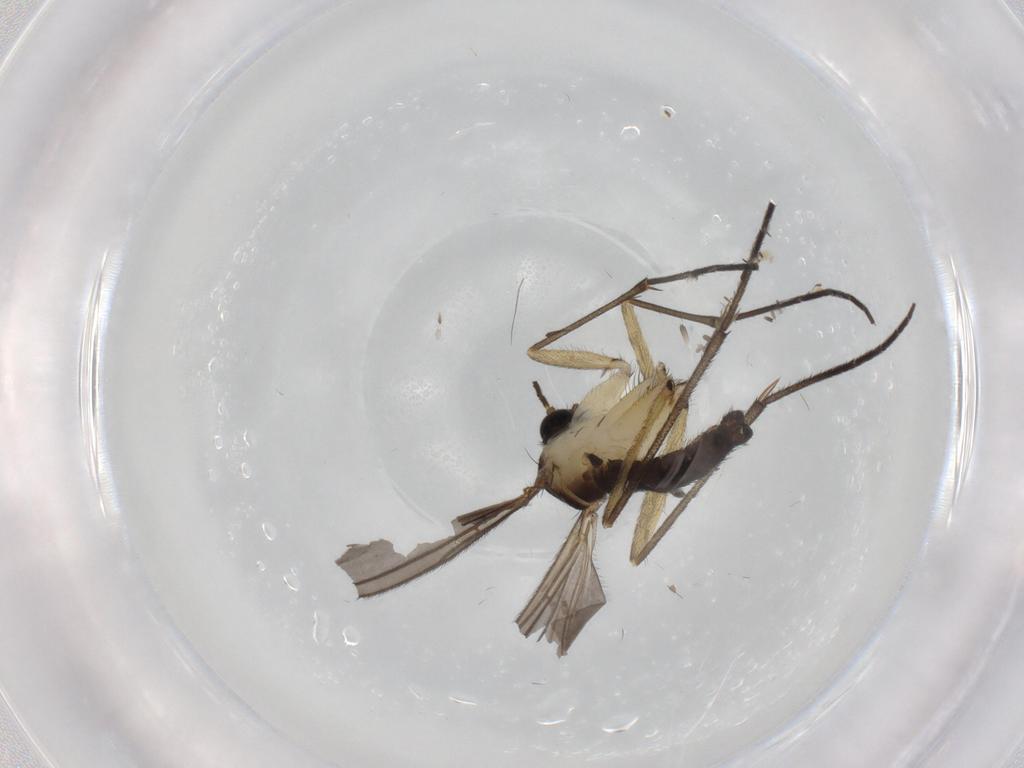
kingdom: Animalia
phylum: Arthropoda
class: Insecta
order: Diptera
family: Sciaridae
